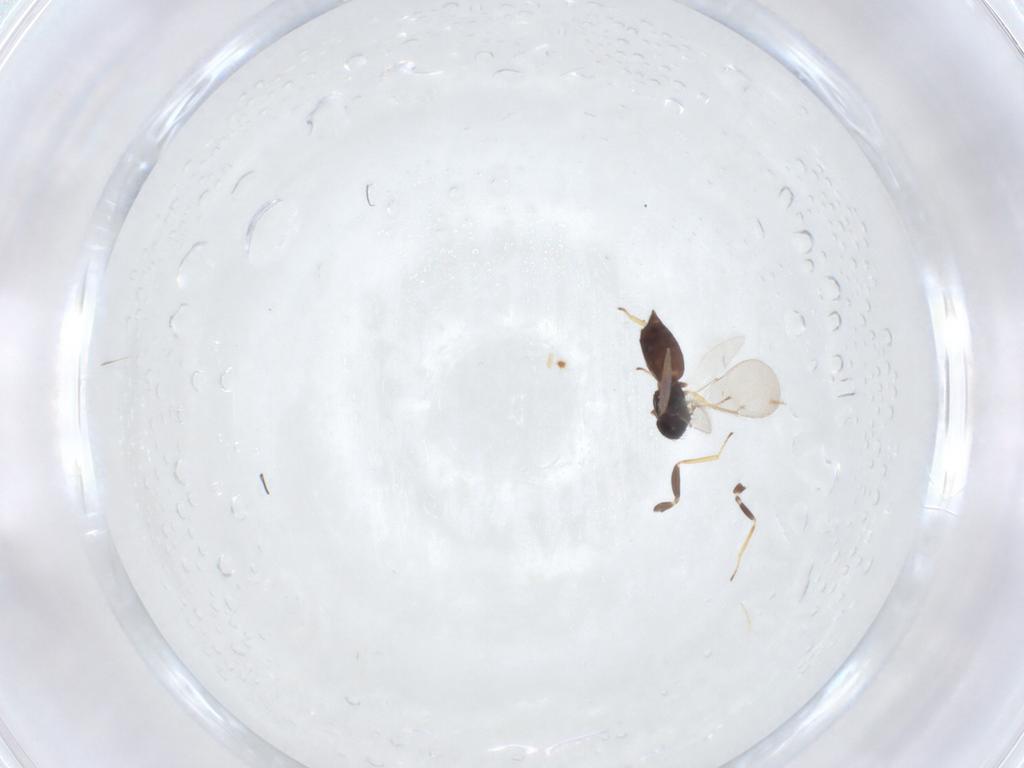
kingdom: Animalia
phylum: Arthropoda
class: Insecta
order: Hymenoptera
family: Eulophidae
